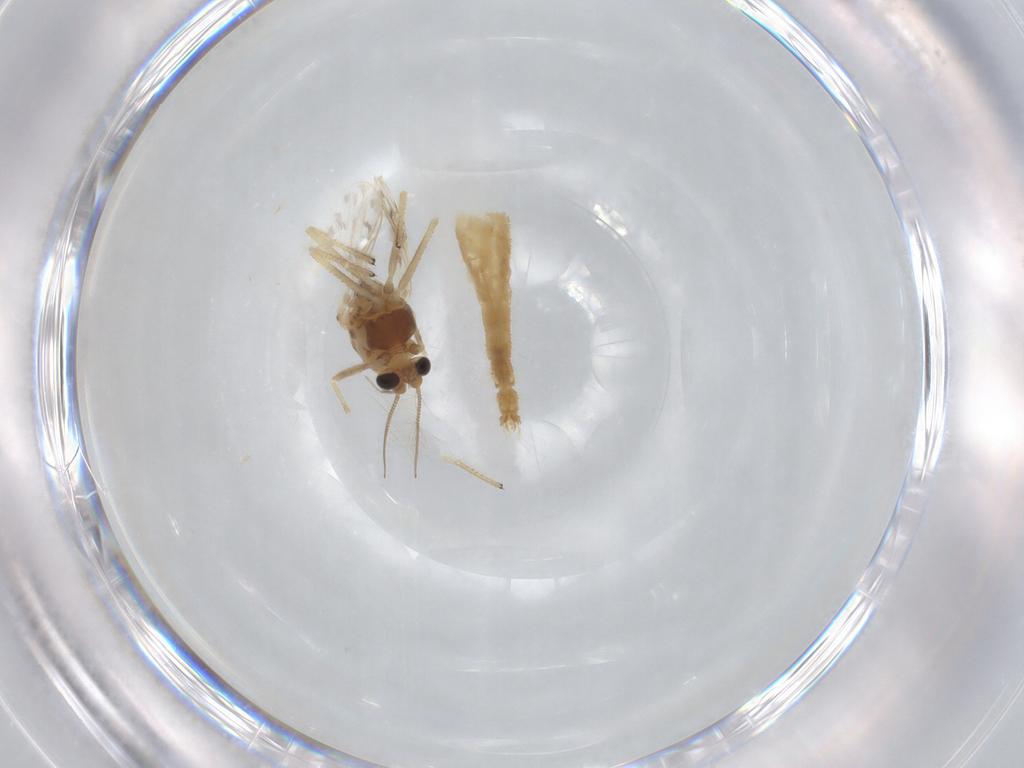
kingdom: Animalia
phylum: Arthropoda
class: Insecta
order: Diptera
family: Chironomidae
